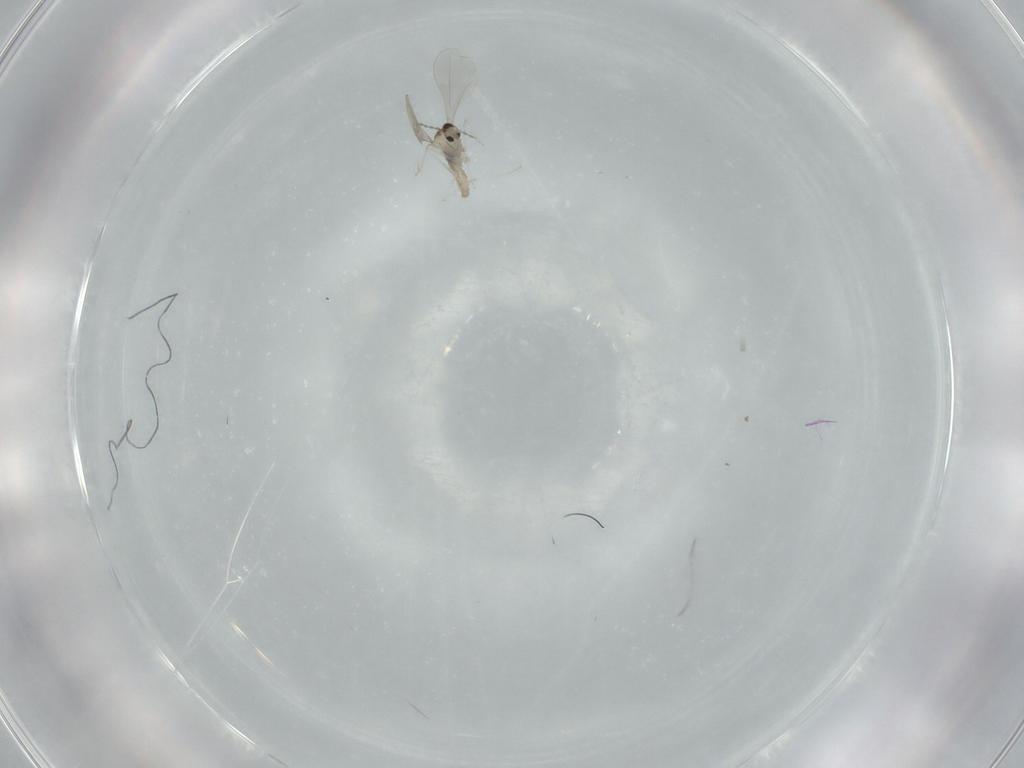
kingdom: Animalia
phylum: Arthropoda
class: Insecta
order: Diptera
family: Cecidomyiidae
